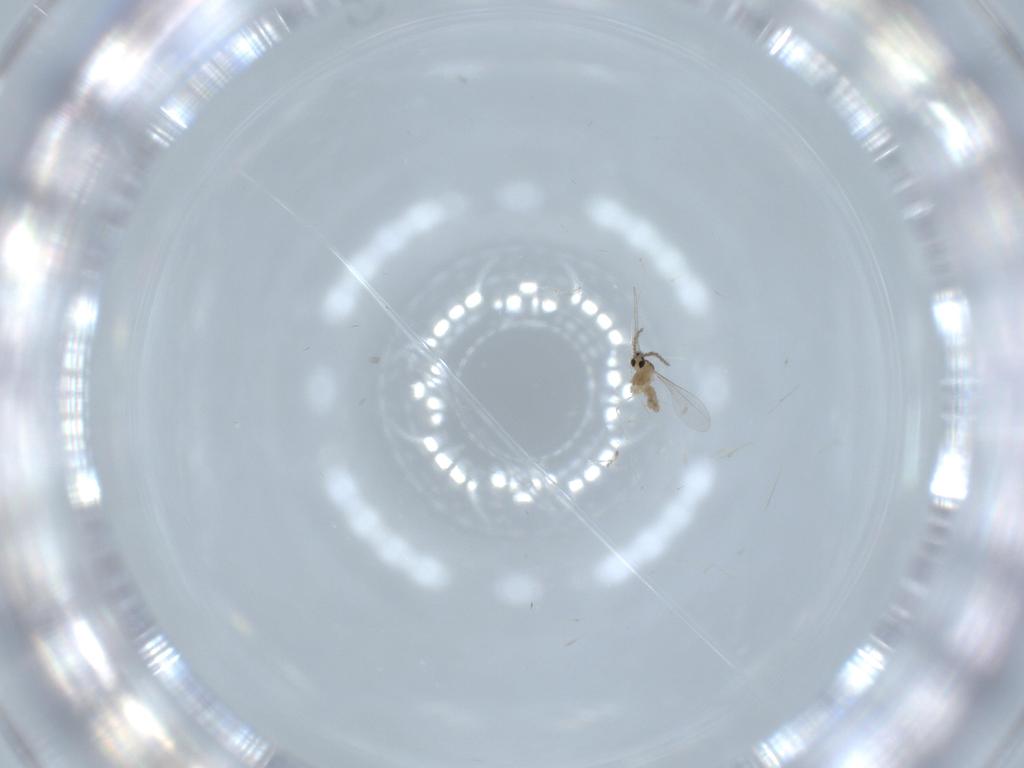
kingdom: Animalia
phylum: Arthropoda
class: Insecta
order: Diptera
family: Cecidomyiidae
